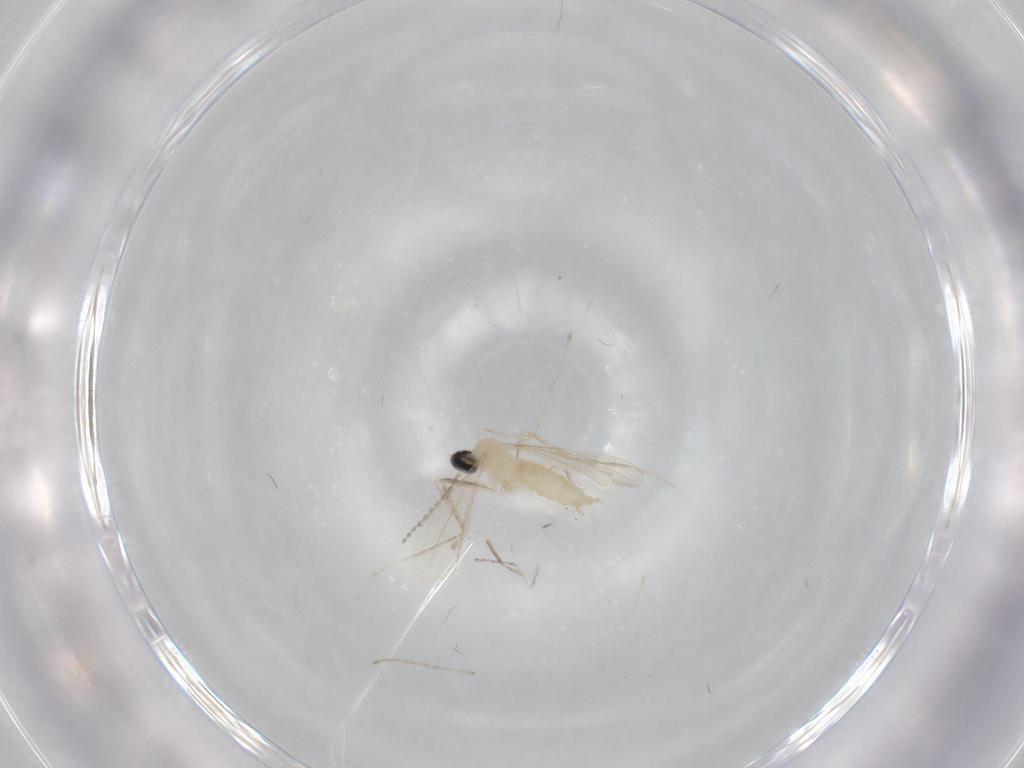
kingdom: Animalia
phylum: Arthropoda
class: Insecta
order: Diptera
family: Cecidomyiidae
